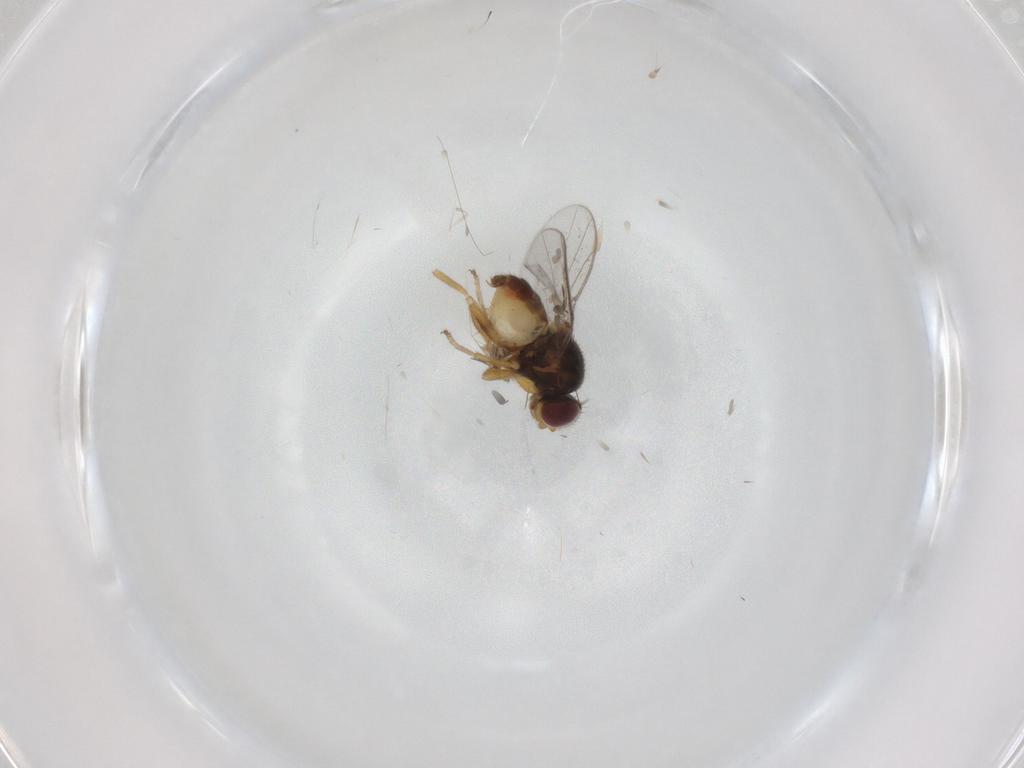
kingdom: Animalia
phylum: Arthropoda
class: Insecta
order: Diptera
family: Chloropidae
